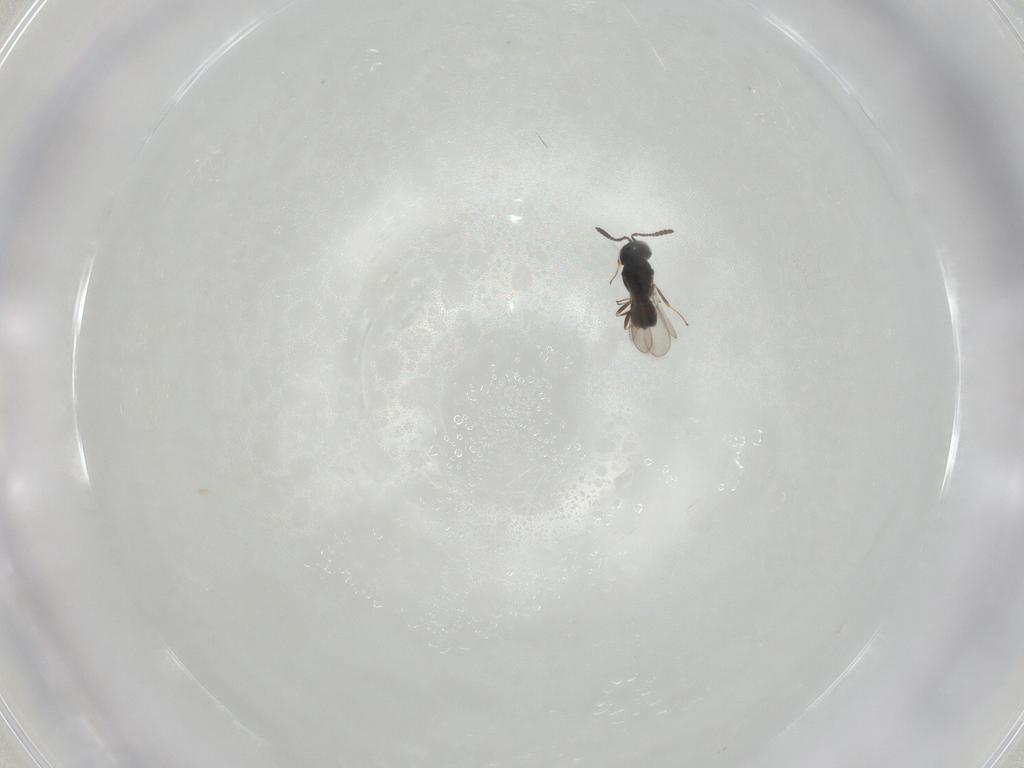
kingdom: Animalia
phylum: Arthropoda
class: Insecta
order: Hymenoptera
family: Scelionidae
